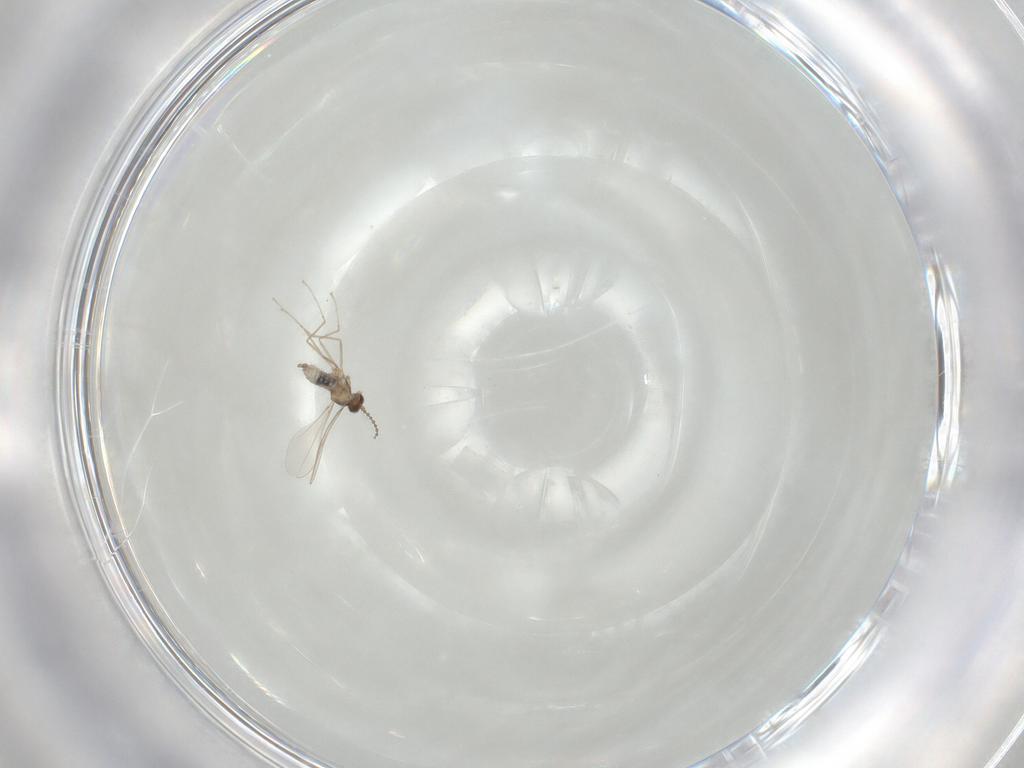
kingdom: Animalia
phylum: Arthropoda
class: Insecta
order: Diptera
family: Cecidomyiidae
